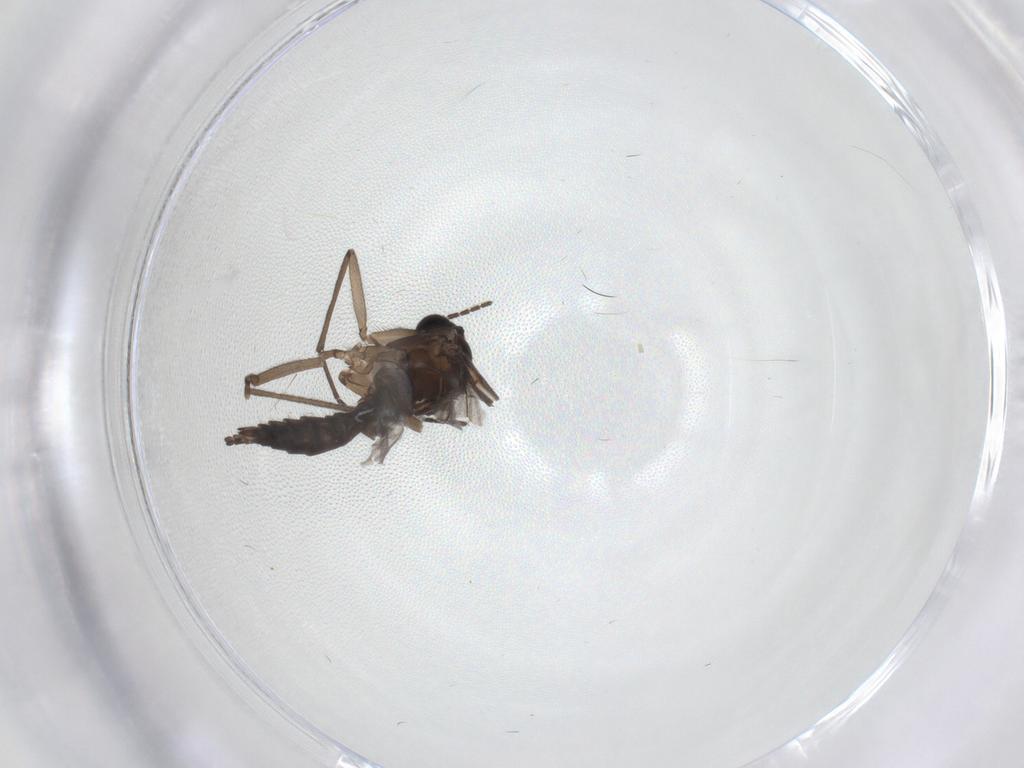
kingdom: Animalia
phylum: Arthropoda
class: Insecta
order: Diptera
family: Sciaridae
